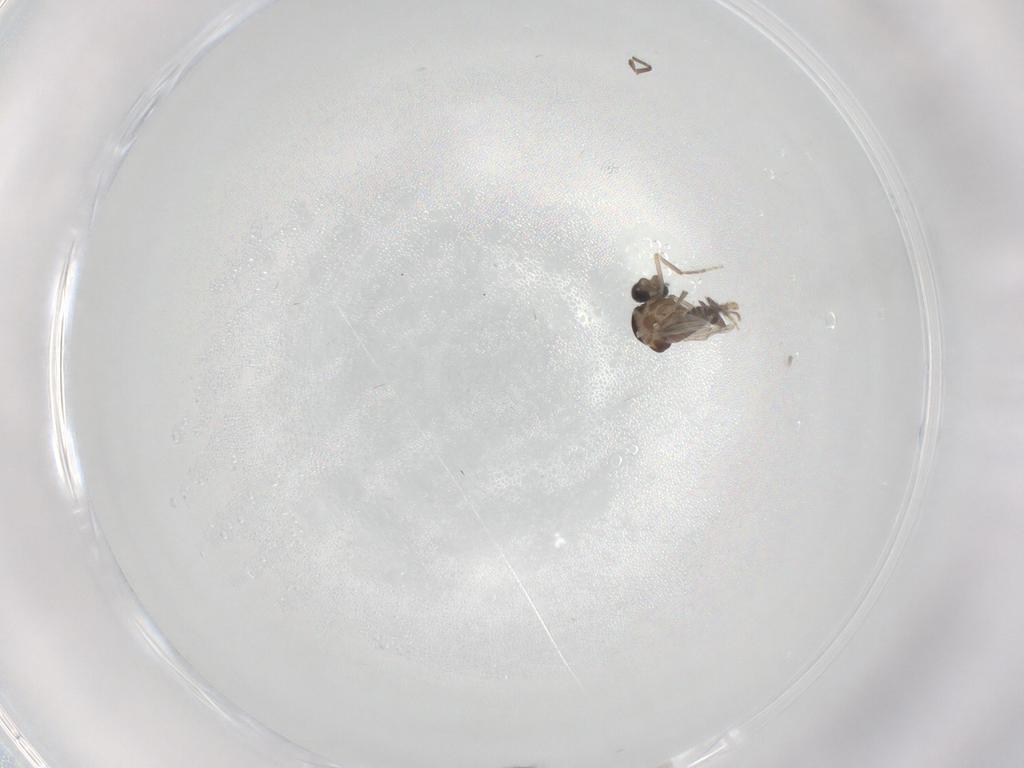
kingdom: Animalia
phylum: Arthropoda
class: Insecta
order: Diptera
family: Ceratopogonidae
